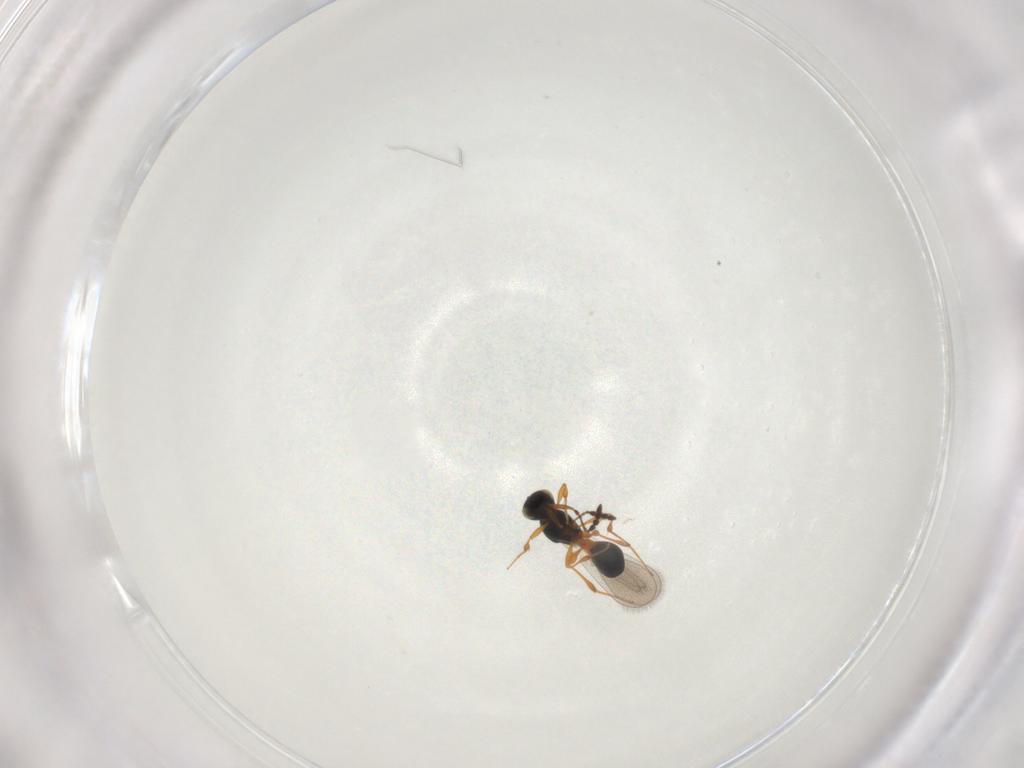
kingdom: Animalia
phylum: Arthropoda
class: Insecta
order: Hymenoptera
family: Platygastridae
